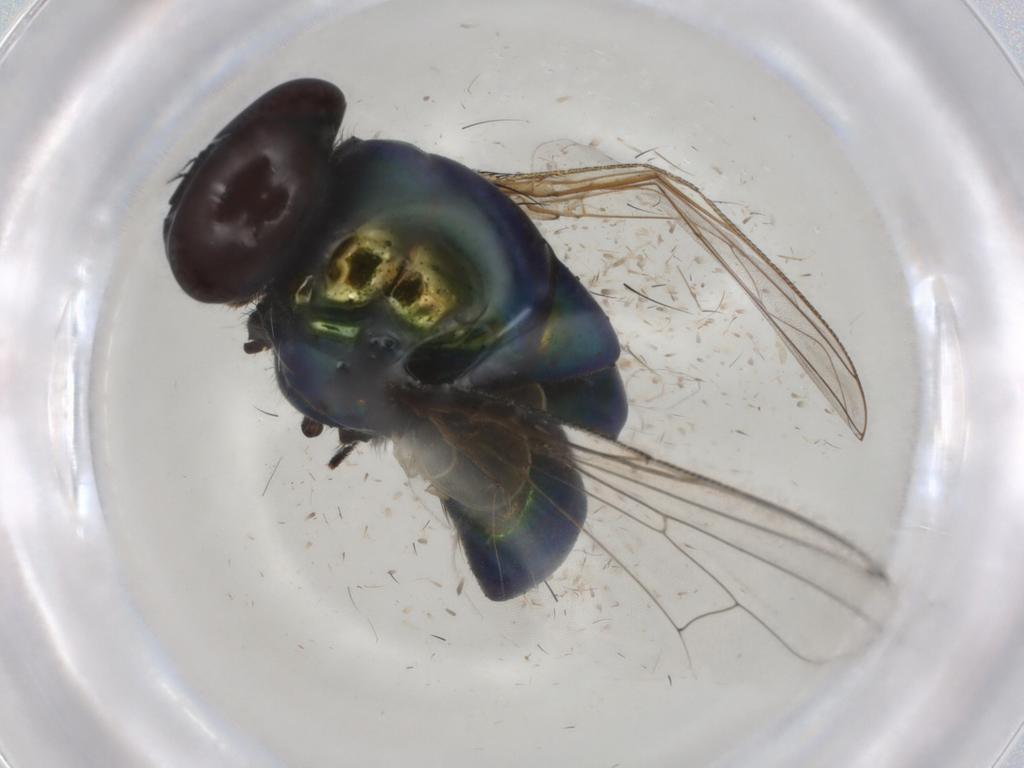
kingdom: Animalia
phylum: Arthropoda
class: Insecta
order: Diptera
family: Muscidae
